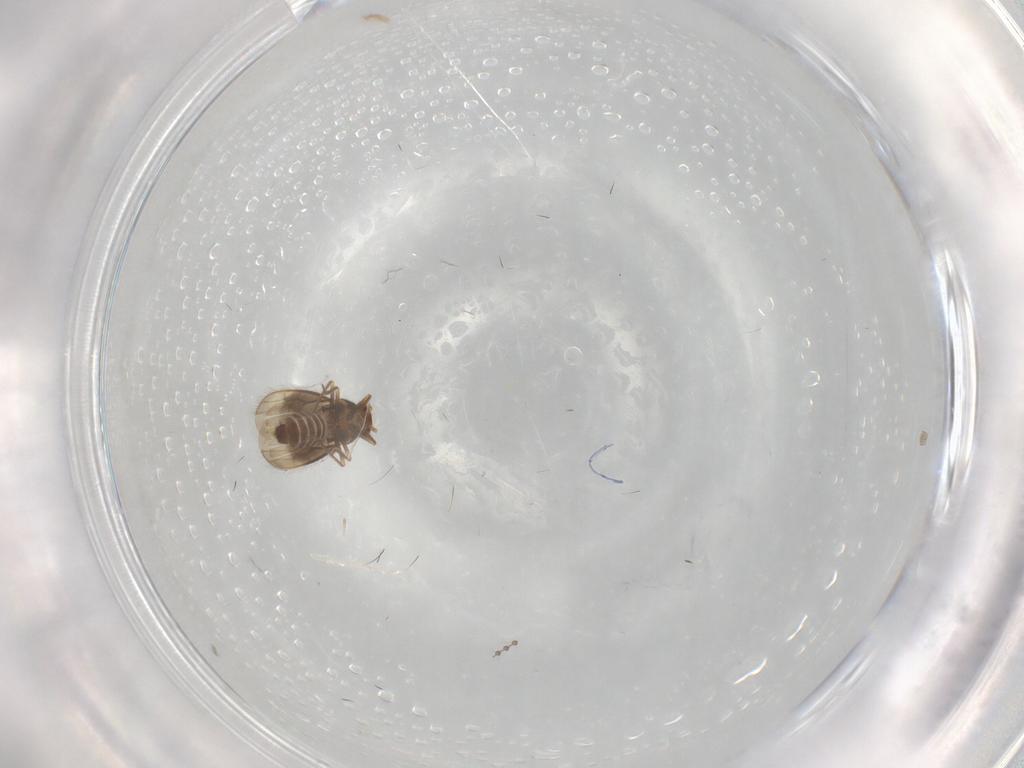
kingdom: Animalia
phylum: Arthropoda
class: Insecta
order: Hemiptera
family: Schizopteridae
